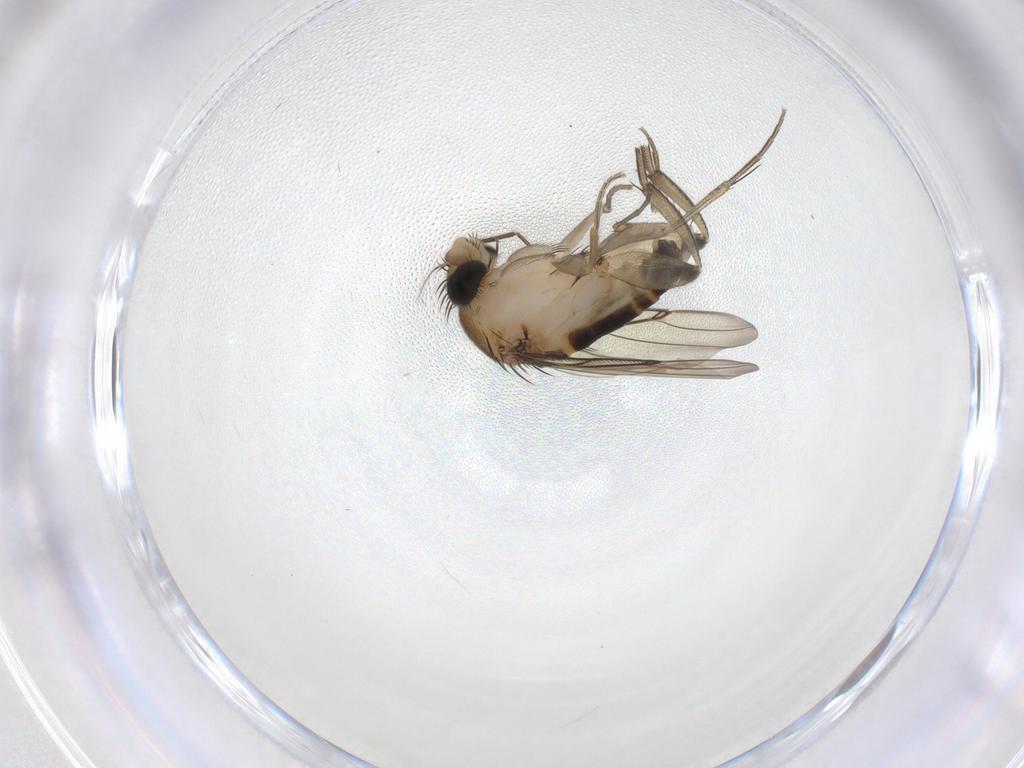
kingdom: Animalia
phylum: Arthropoda
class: Insecta
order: Diptera
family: Phoridae
